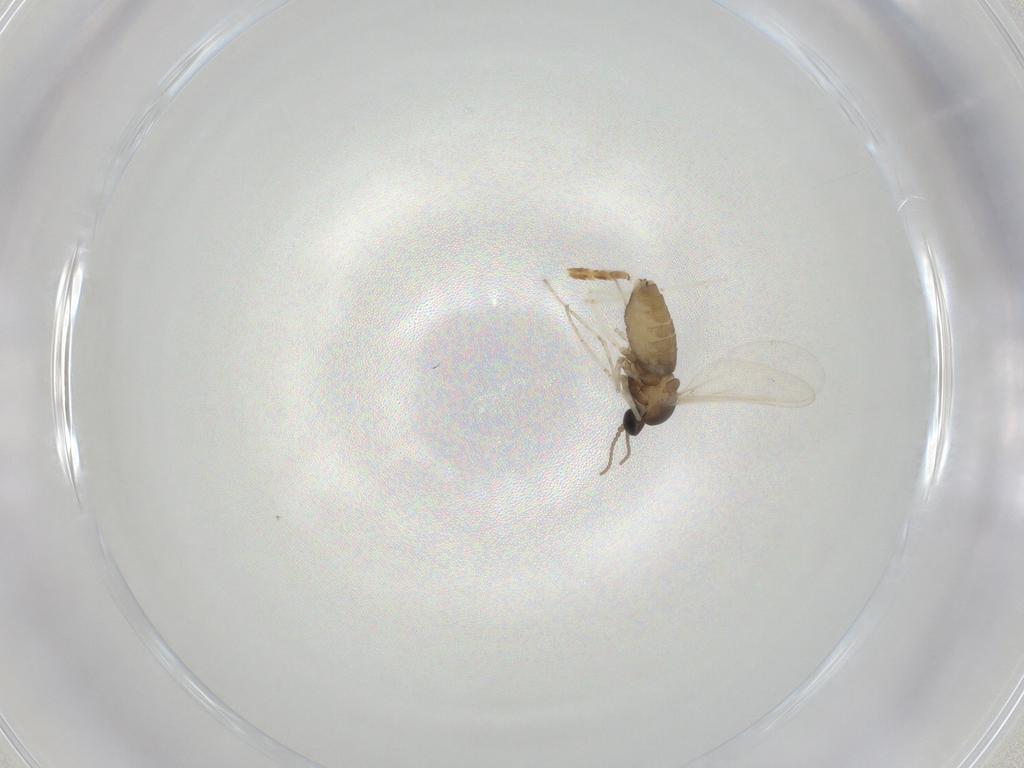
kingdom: Animalia
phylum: Arthropoda
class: Insecta
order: Diptera
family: Cecidomyiidae
